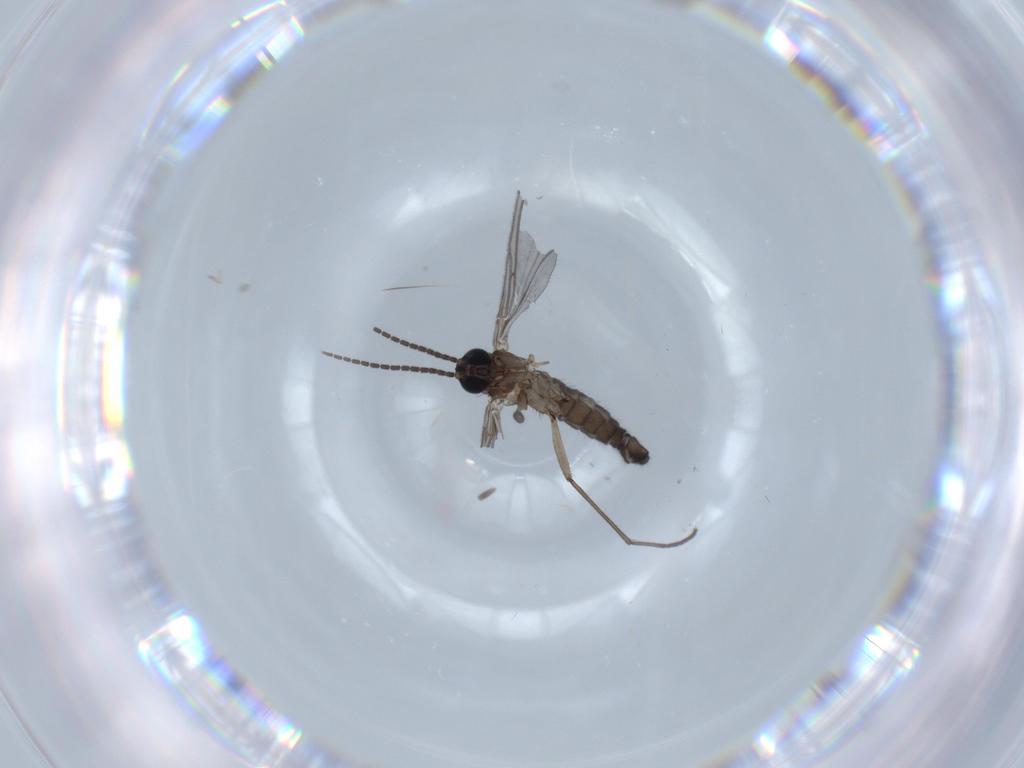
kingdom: Animalia
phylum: Arthropoda
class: Insecta
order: Diptera
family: Sciaridae
